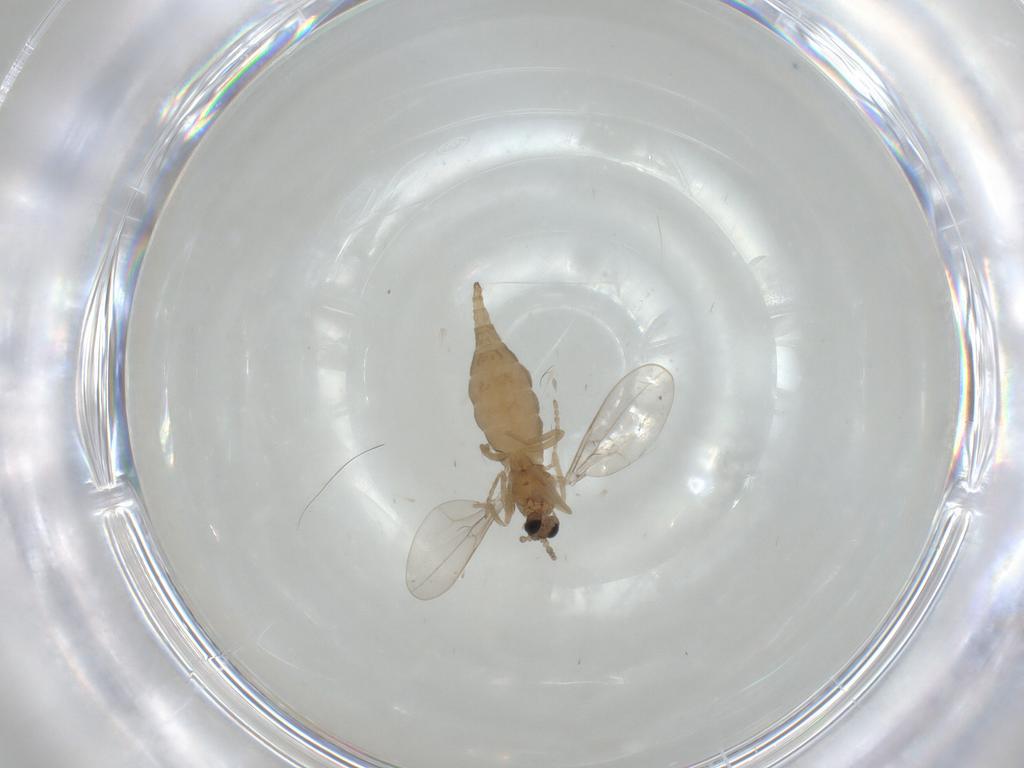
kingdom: Animalia
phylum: Arthropoda
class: Insecta
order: Diptera
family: Cecidomyiidae
